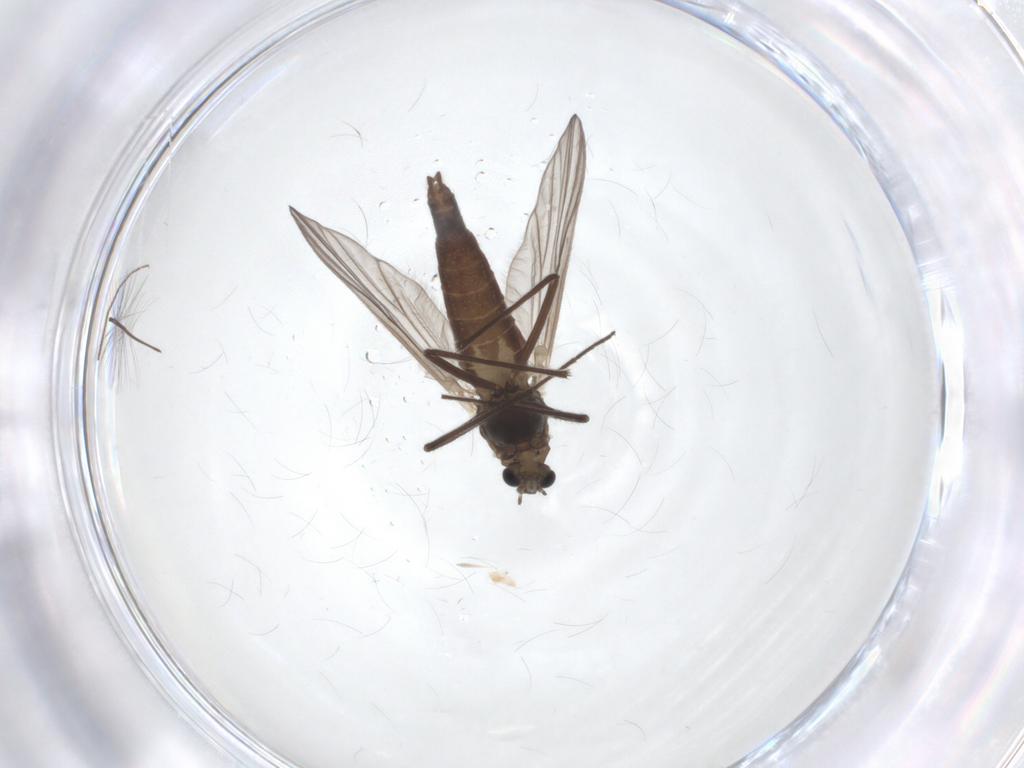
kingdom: Animalia
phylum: Arthropoda
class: Insecta
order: Diptera
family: Chironomidae
